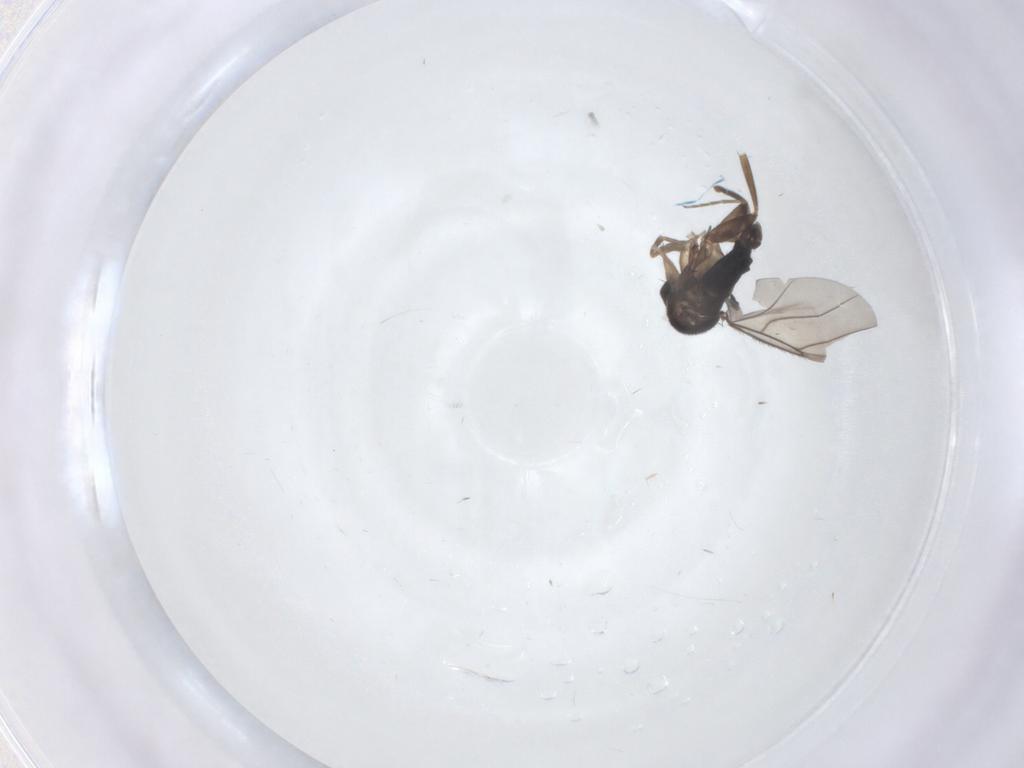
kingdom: Animalia
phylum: Arthropoda
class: Insecta
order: Diptera
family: Phoridae
